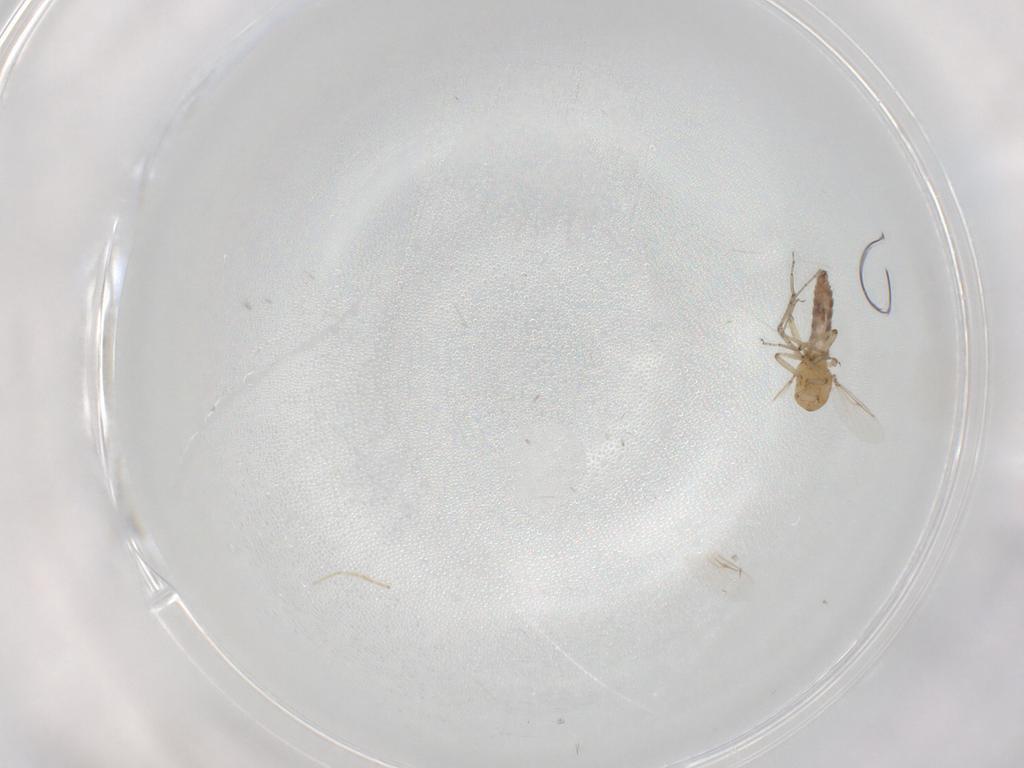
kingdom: Animalia
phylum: Arthropoda
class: Insecta
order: Diptera
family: Ceratopogonidae
